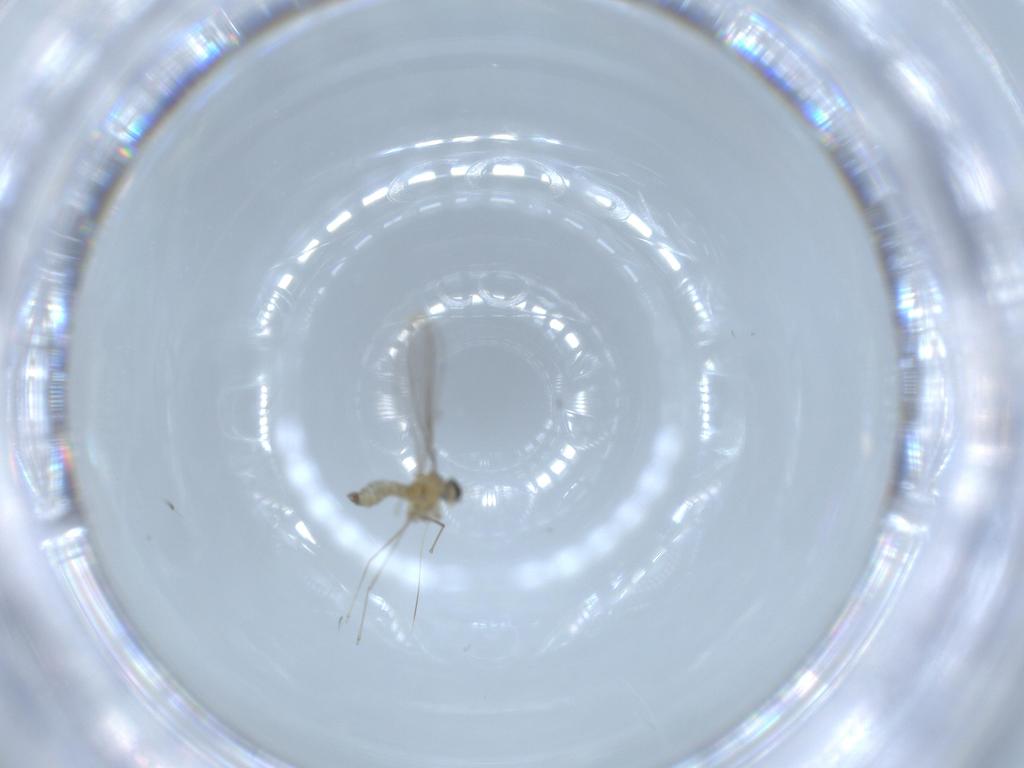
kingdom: Animalia
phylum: Arthropoda
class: Insecta
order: Diptera
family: Cecidomyiidae
